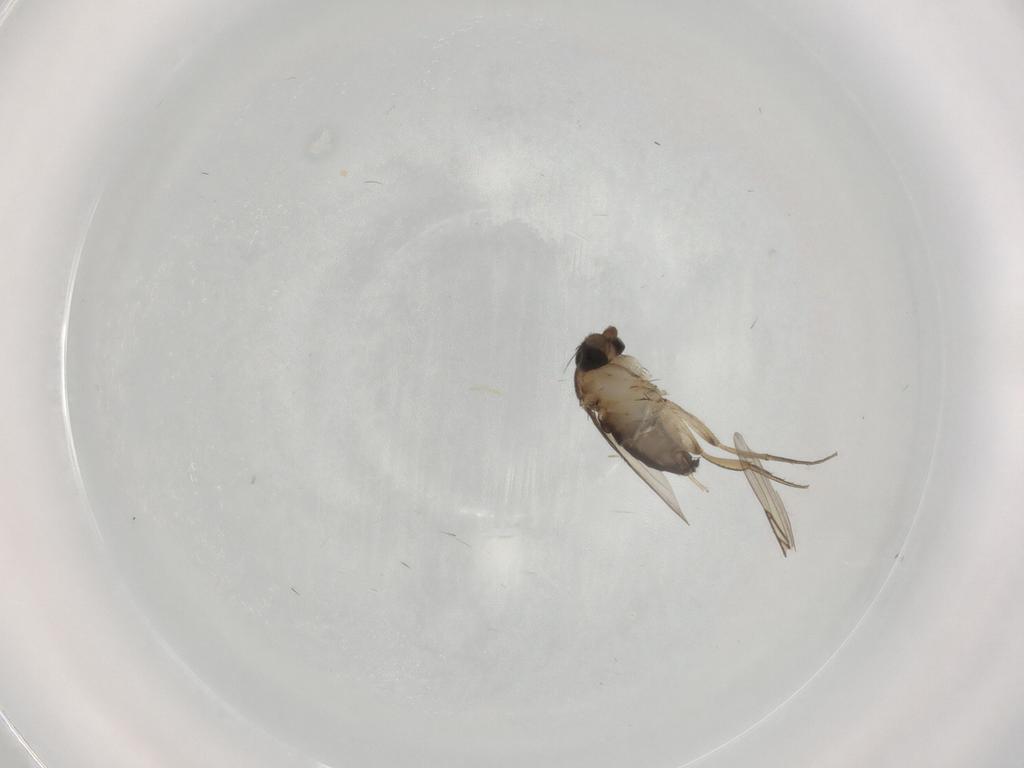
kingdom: Animalia
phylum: Arthropoda
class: Insecta
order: Diptera
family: Phoridae
